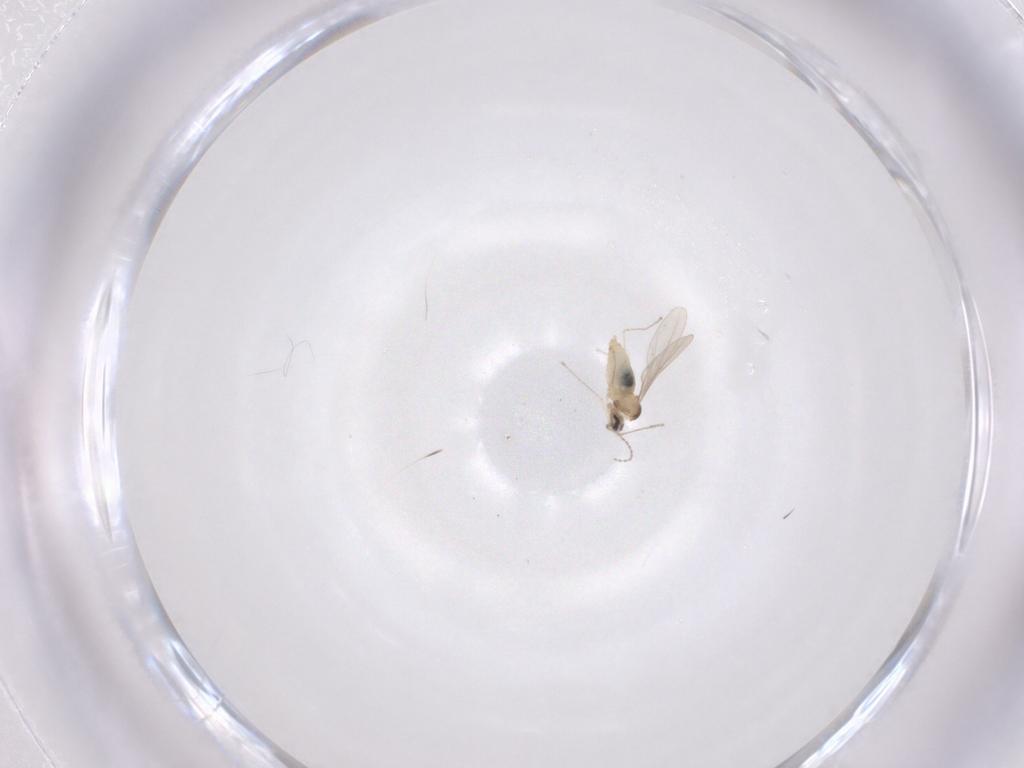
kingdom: Animalia
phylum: Arthropoda
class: Insecta
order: Diptera
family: Cecidomyiidae
